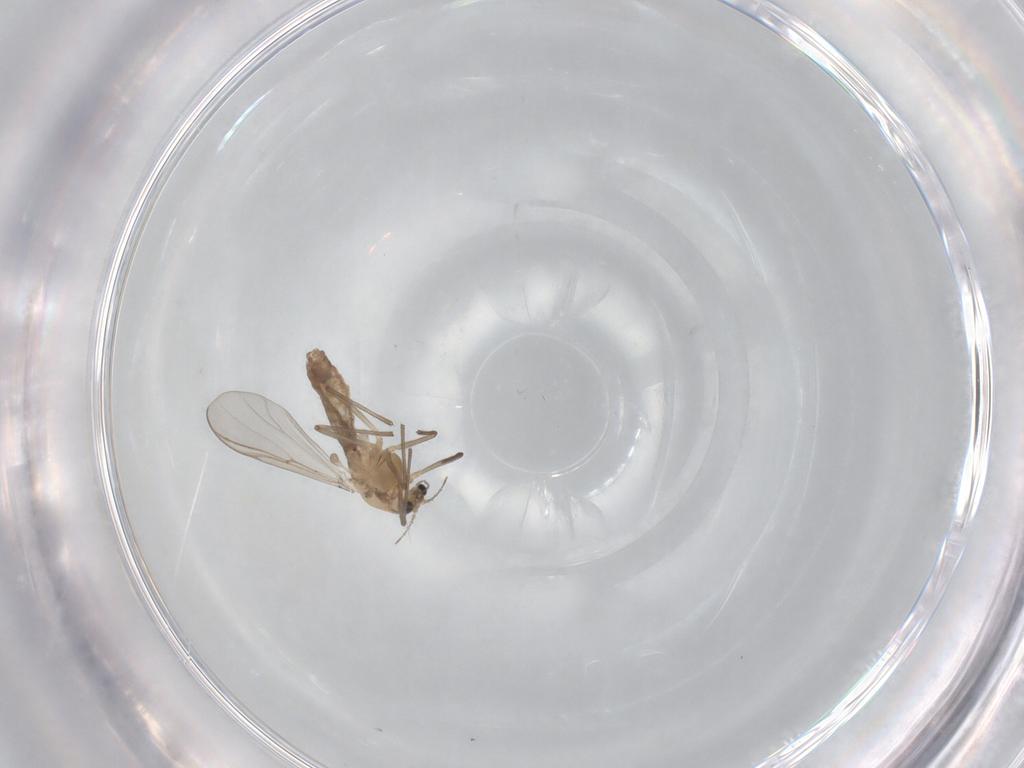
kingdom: Animalia
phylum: Arthropoda
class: Insecta
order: Diptera
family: Chironomidae
